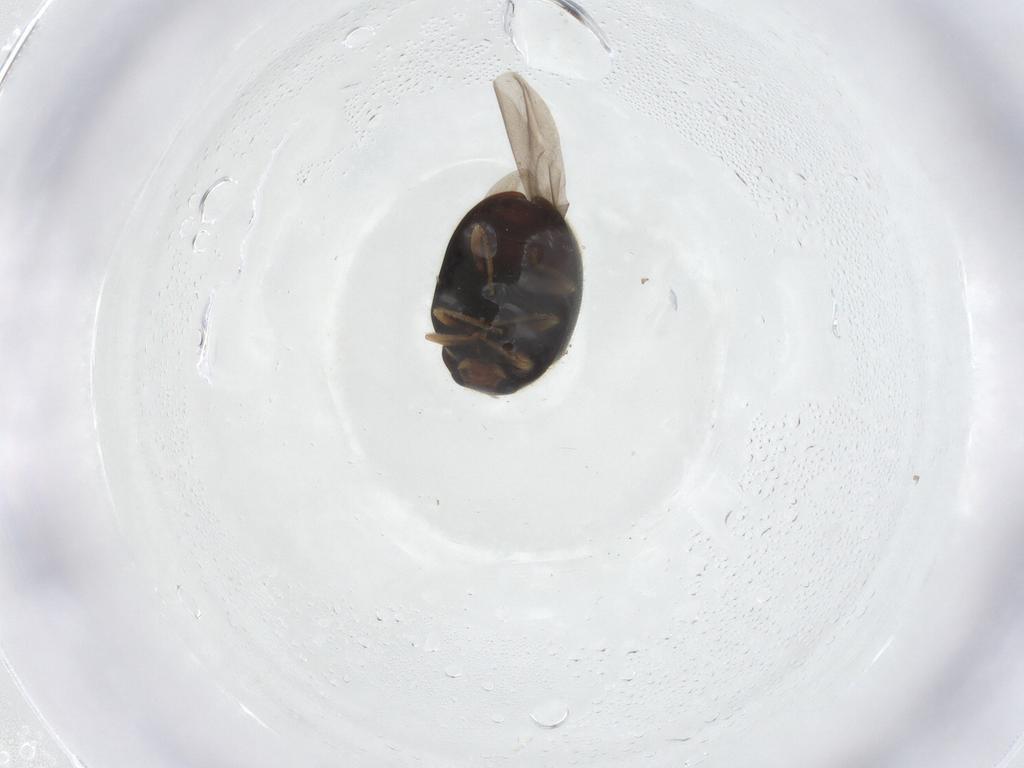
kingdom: Animalia
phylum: Arthropoda
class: Insecta
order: Coleoptera
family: Coccinellidae
